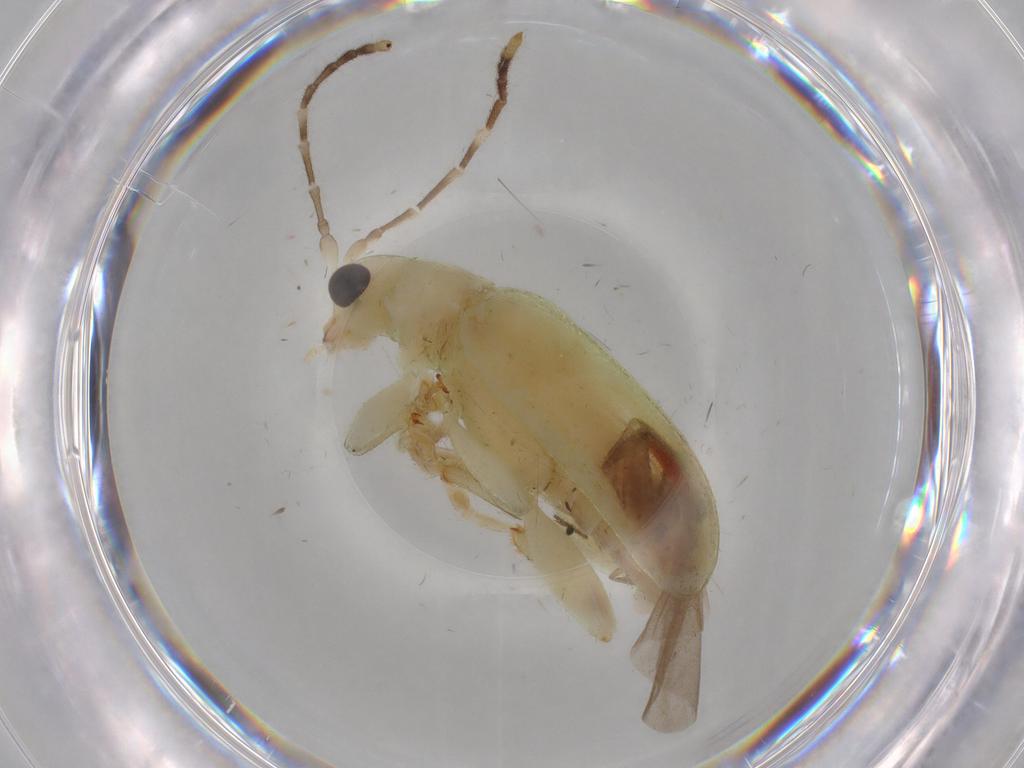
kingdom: Animalia
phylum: Arthropoda
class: Insecta
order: Coleoptera
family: Chrysomelidae
